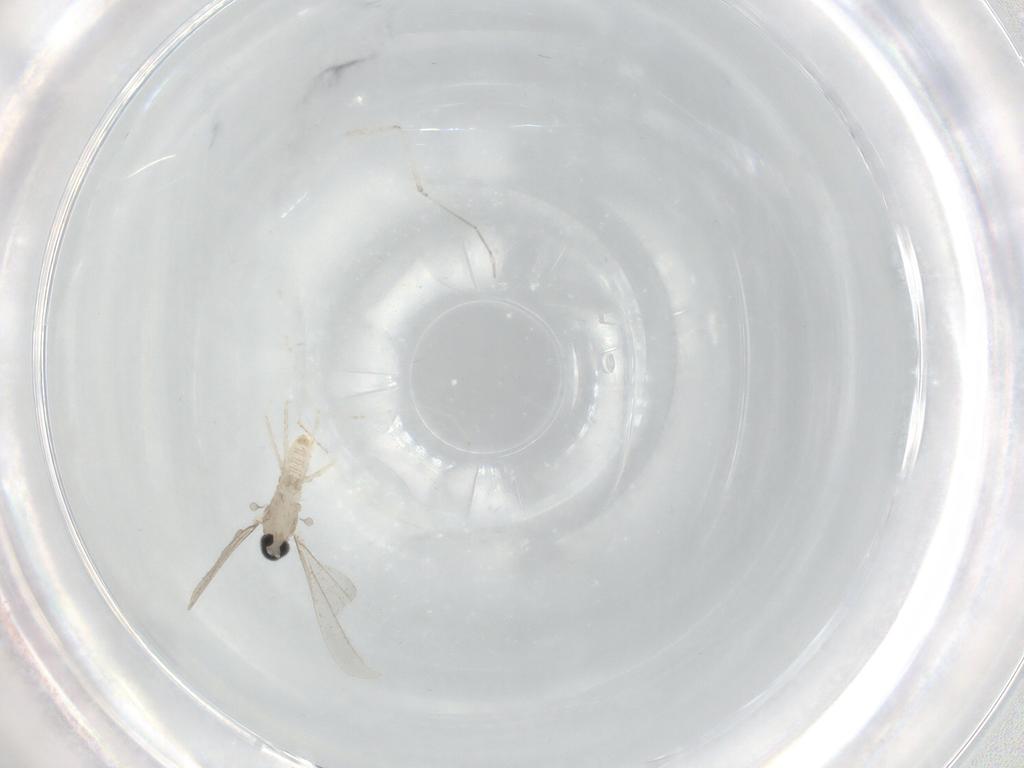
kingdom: Animalia
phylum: Arthropoda
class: Insecta
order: Diptera
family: Cecidomyiidae
